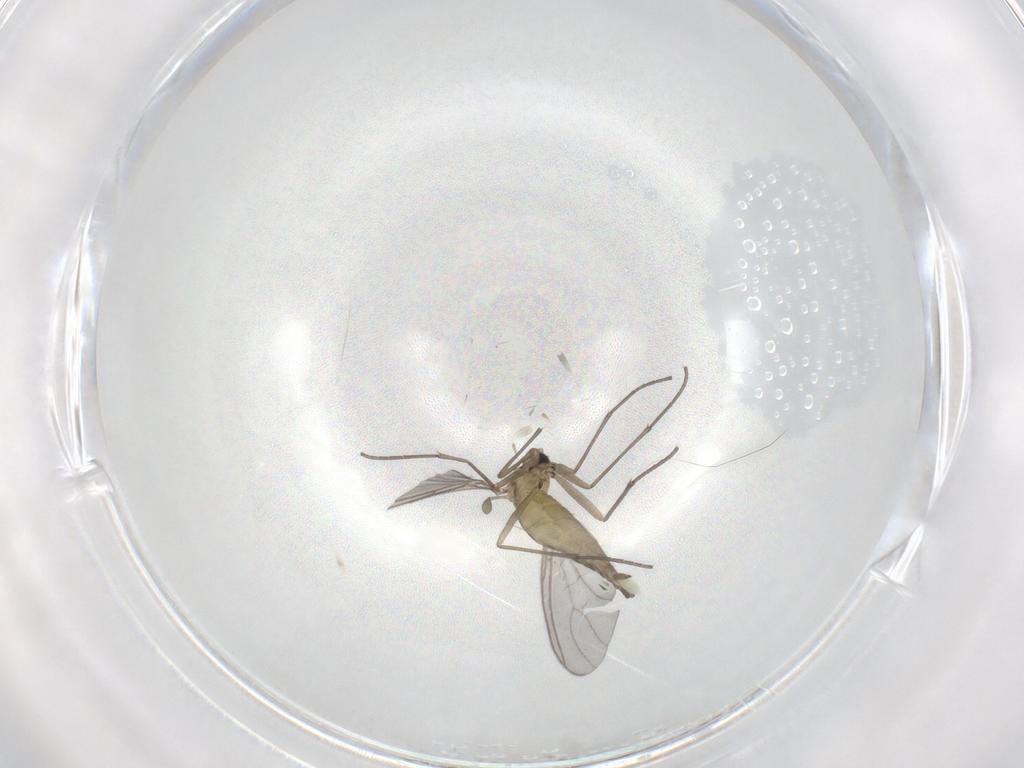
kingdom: Animalia
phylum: Arthropoda
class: Insecta
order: Diptera
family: Sciaridae
